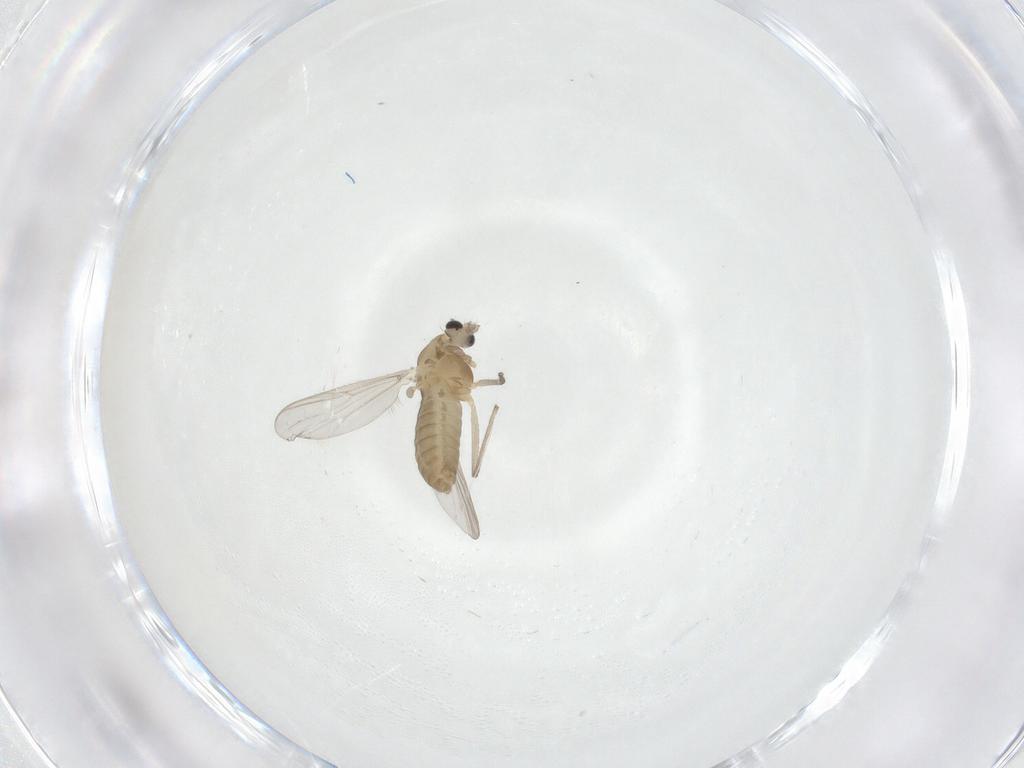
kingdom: Animalia
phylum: Arthropoda
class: Insecta
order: Diptera
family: Chironomidae
